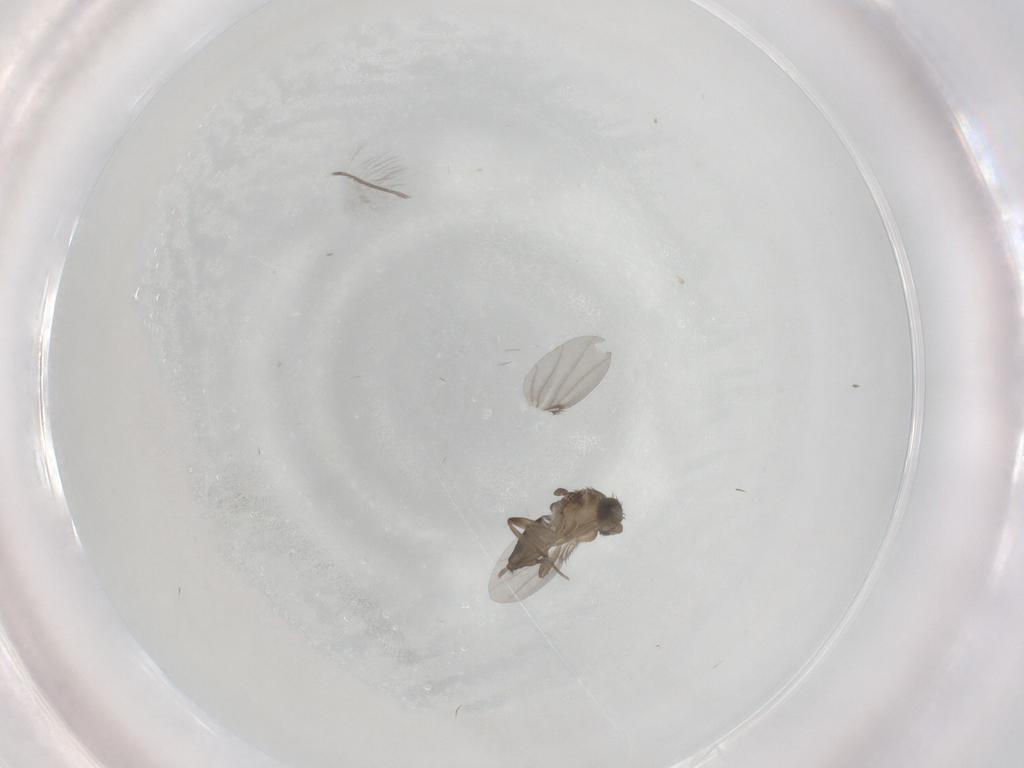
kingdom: Animalia
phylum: Arthropoda
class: Insecta
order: Diptera
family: Phoridae
